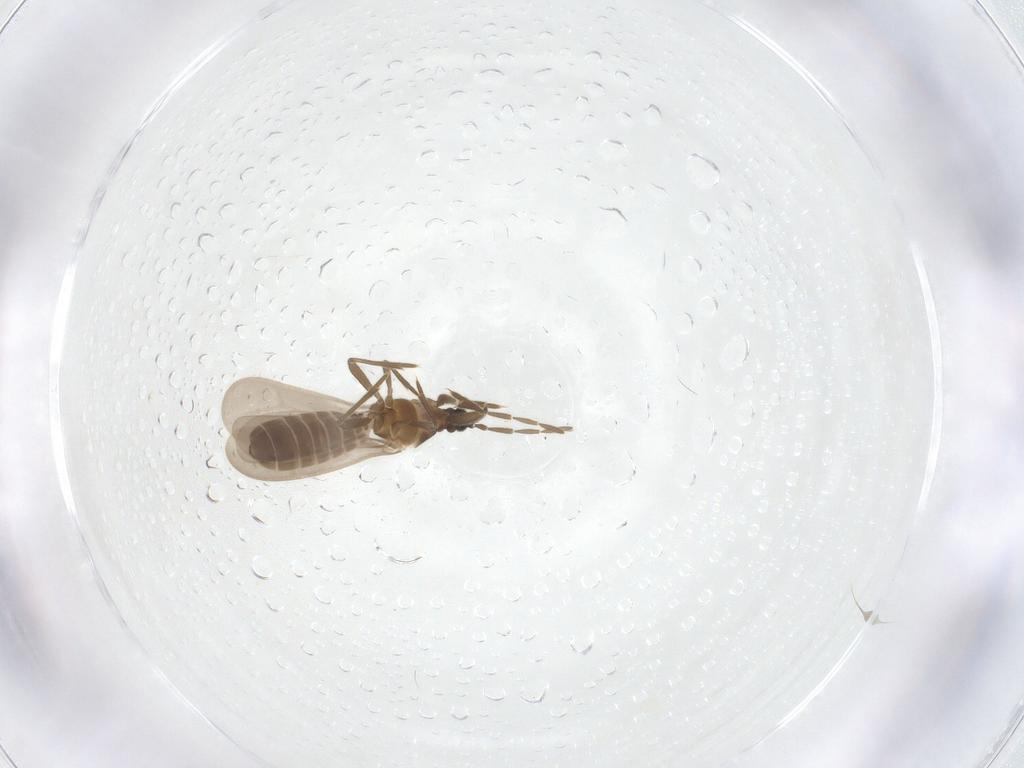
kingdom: Animalia
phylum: Arthropoda
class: Insecta
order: Hemiptera
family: Enicocephalidae
